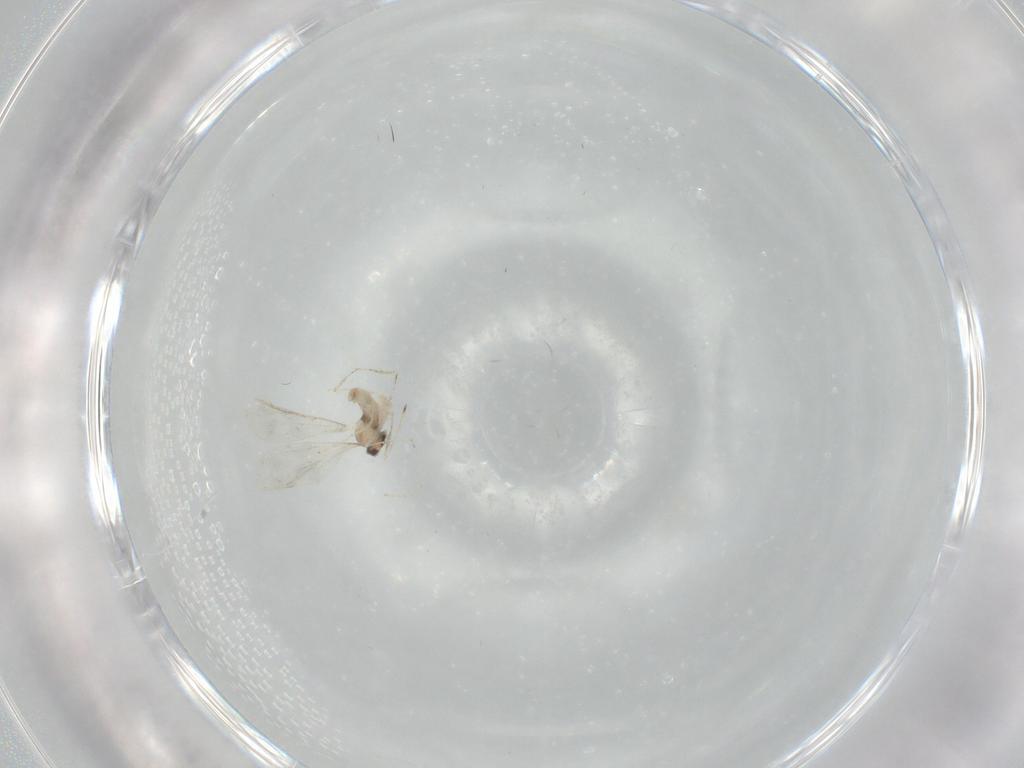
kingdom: Animalia
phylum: Arthropoda
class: Insecta
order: Diptera
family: Cecidomyiidae
